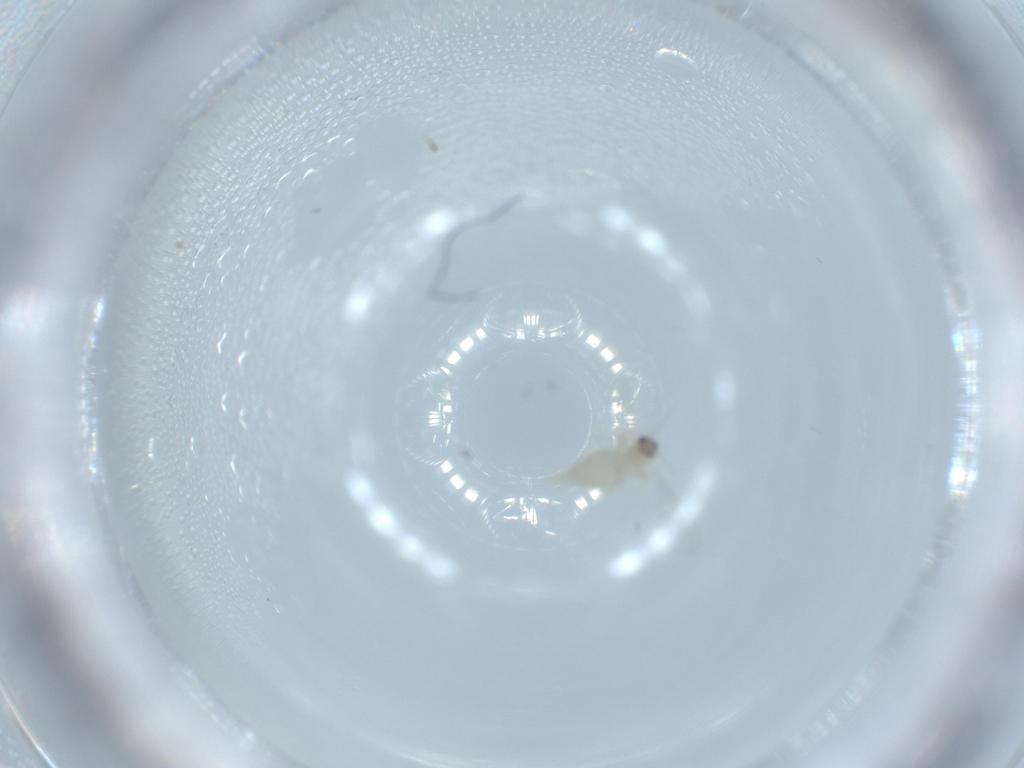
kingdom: Animalia
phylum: Arthropoda
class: Insecta
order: Diptera
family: Cecidomyiidae
